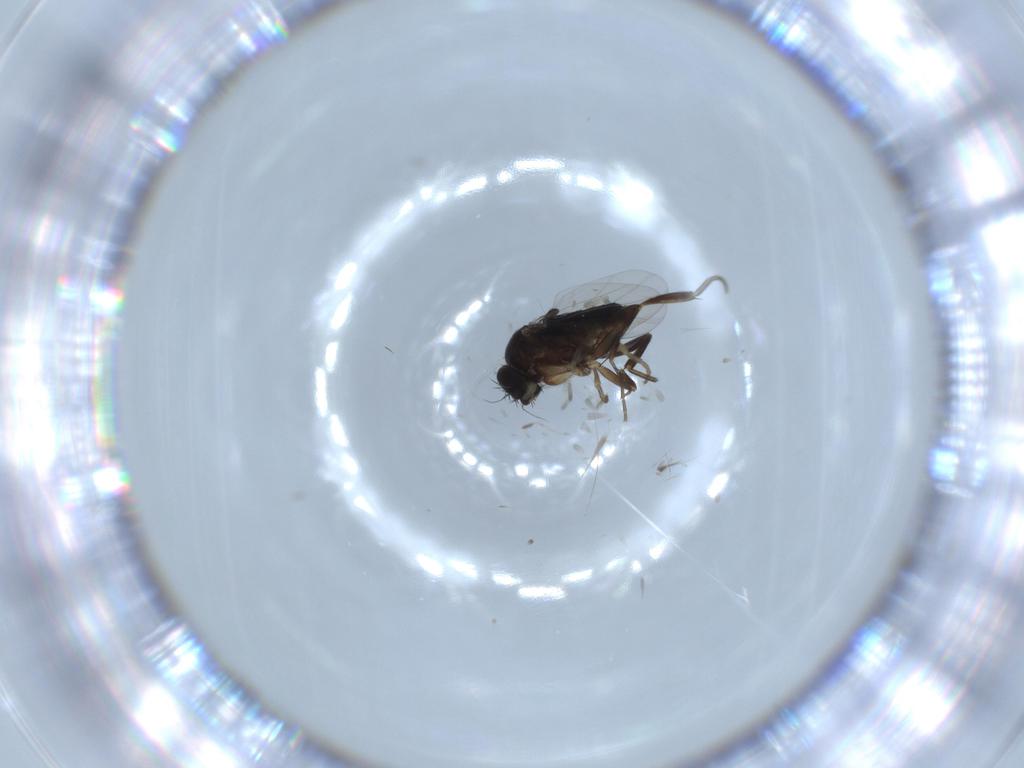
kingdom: Animalia
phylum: Arthropoda
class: Insecta
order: Diptera
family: Phoridae
